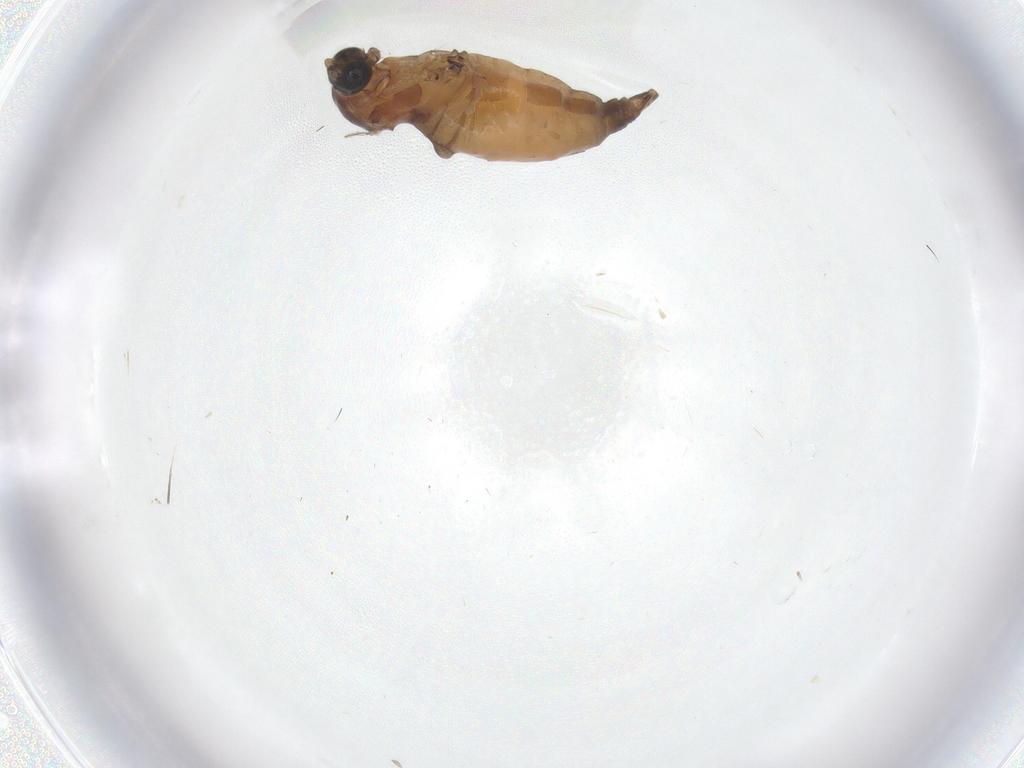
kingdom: Animalia
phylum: Arthropoda
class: Insecta
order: Diptera
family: Sciaridae
